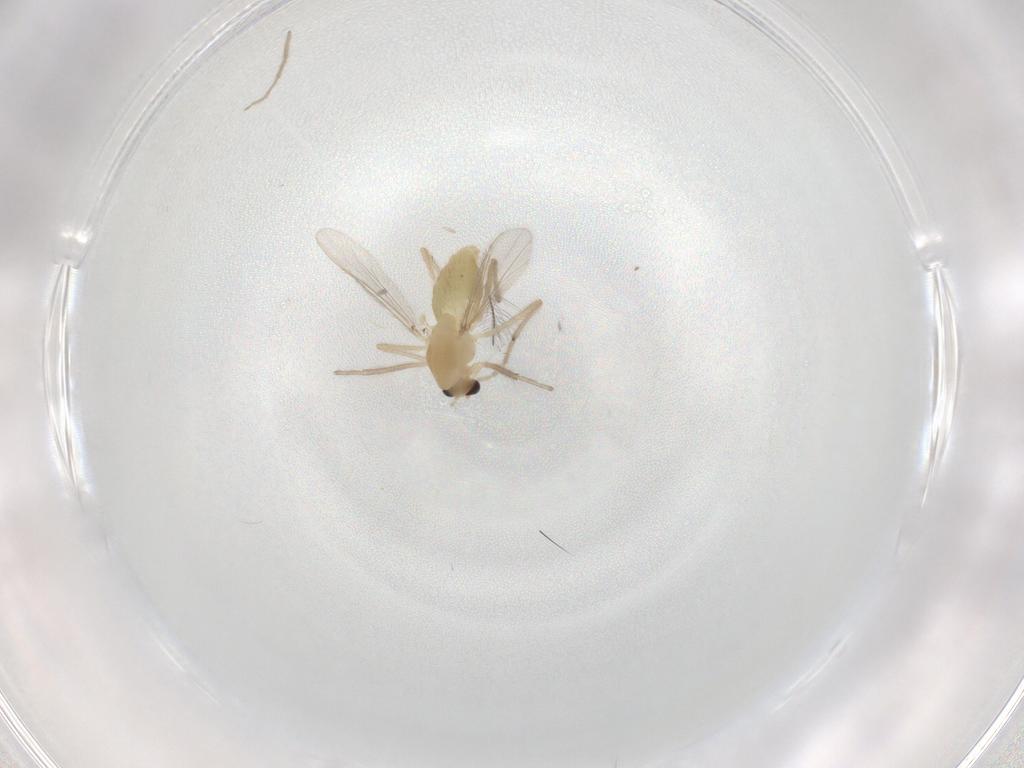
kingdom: Animalia
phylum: Arthropoda
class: Insecta
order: Diptera
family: Chironomidae
